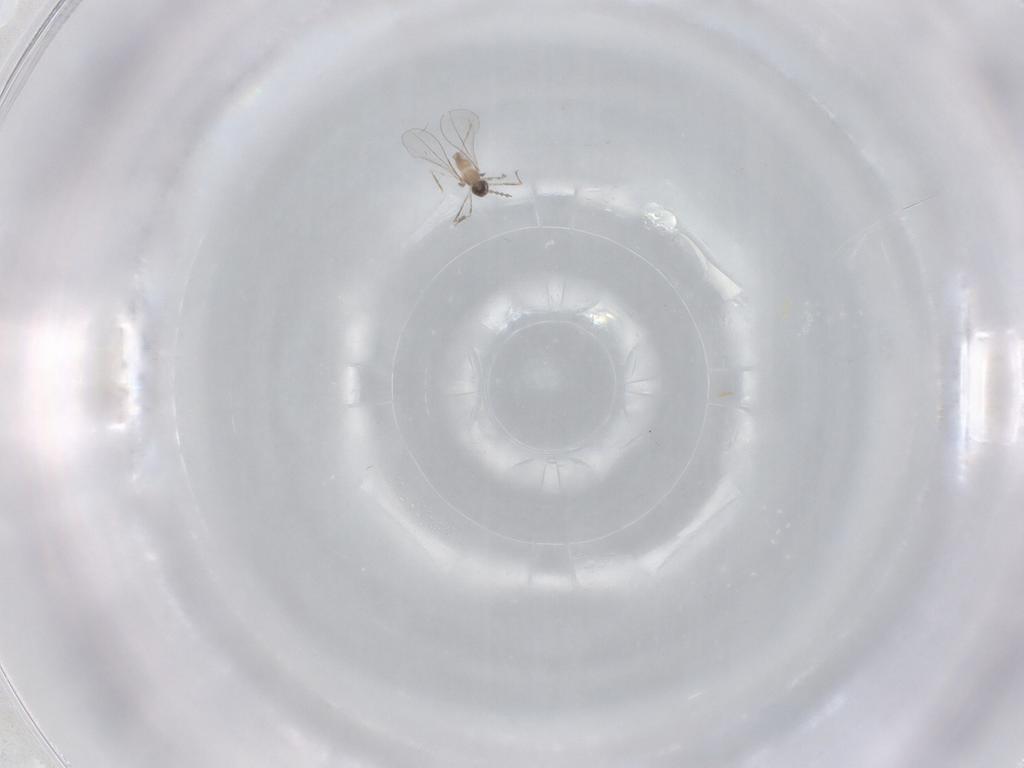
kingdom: Animalia
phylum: Arthropoda
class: Insecta
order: Diptera
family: Cecidomyiidae
